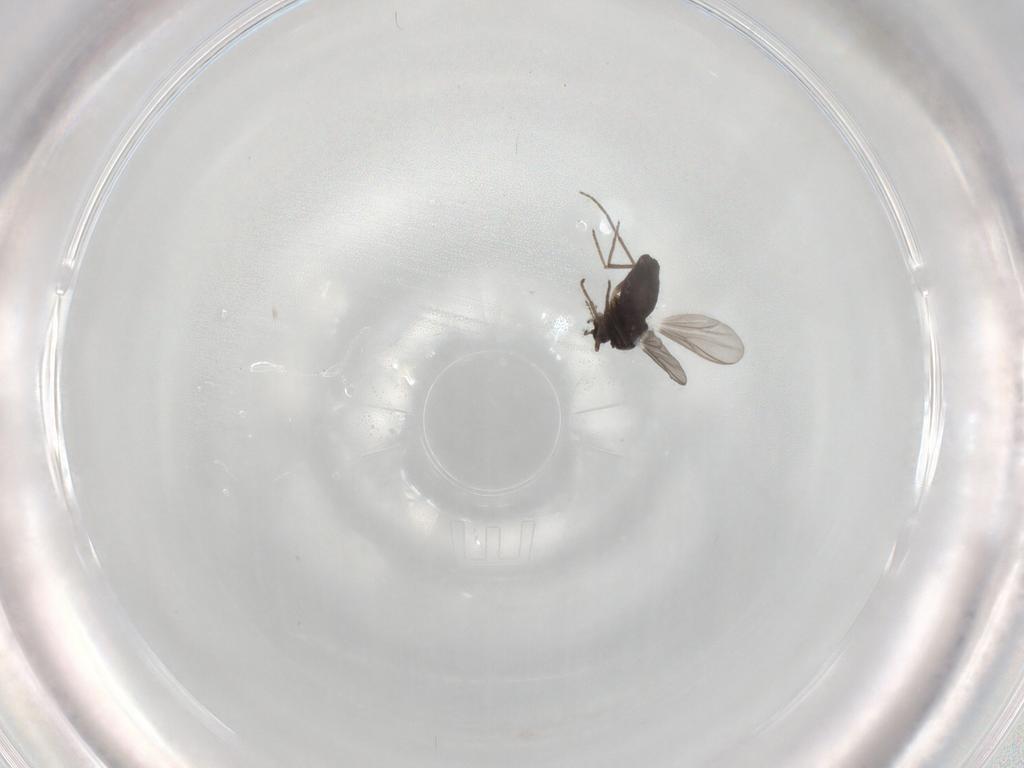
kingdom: Animalia
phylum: Arthropoda
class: Insecta
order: Diptera
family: Chironomidae
